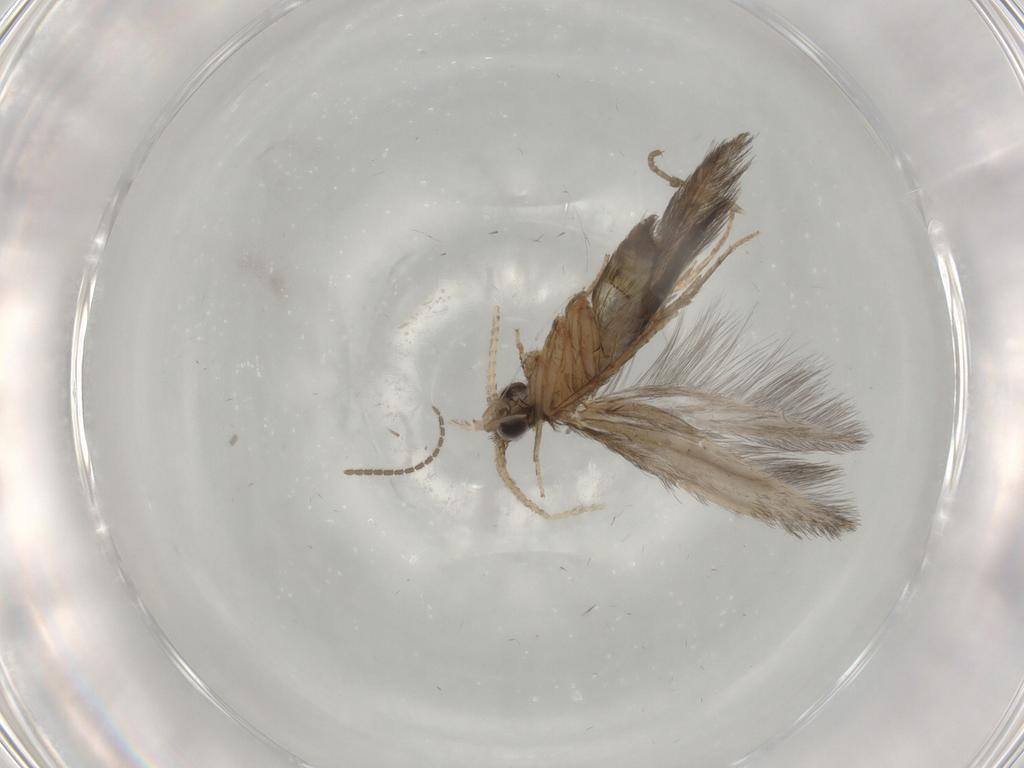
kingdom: Animalia
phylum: Arthropoda
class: Insecta
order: Trichoptera
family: Hydroptilidae
